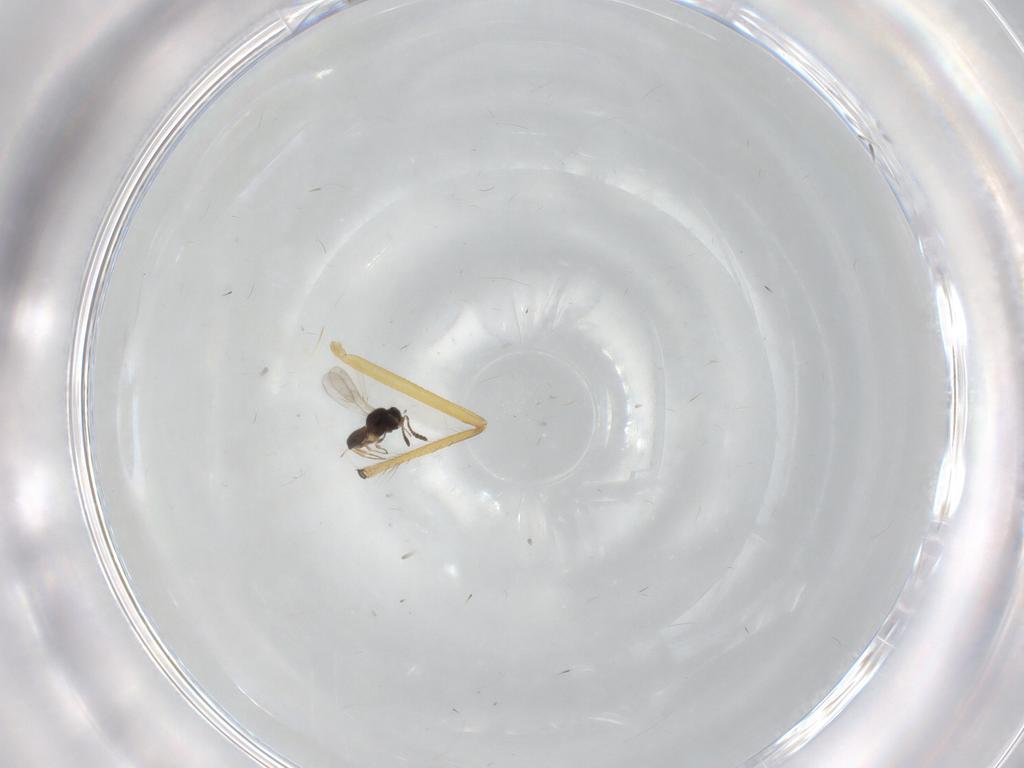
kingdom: Animalia
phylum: Arthropoda
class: Insecta
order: Diptera
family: Chironomidae
